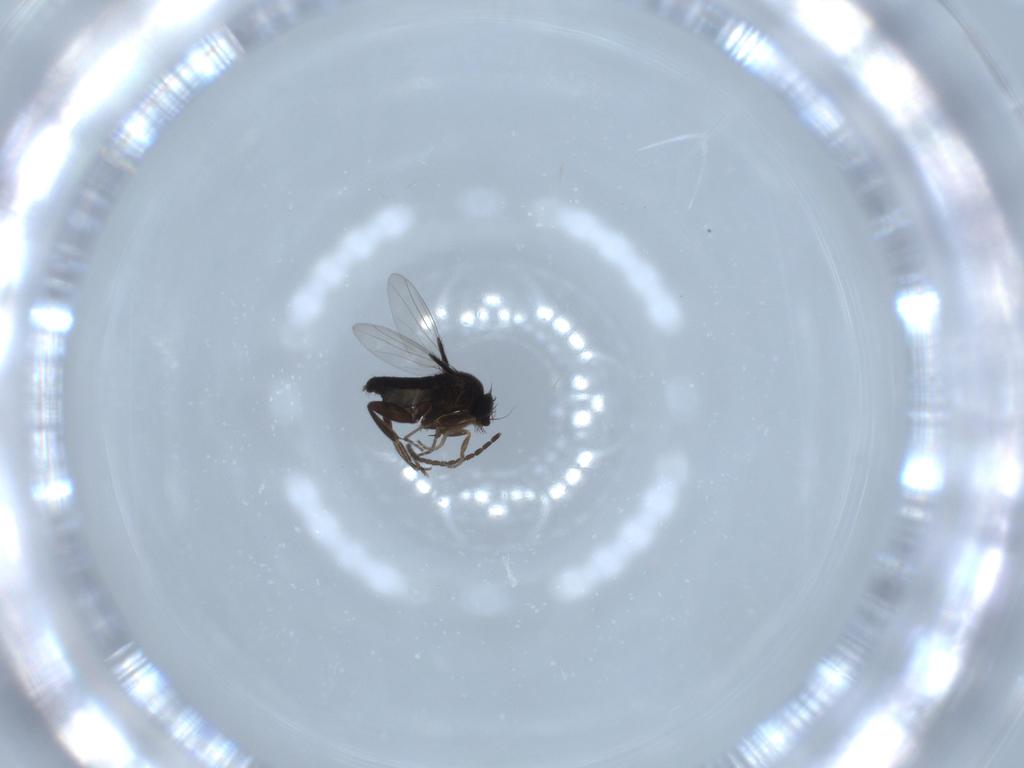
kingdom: Animalia
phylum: Arthropoda
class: Insecta
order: Diptera
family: Phoridae
